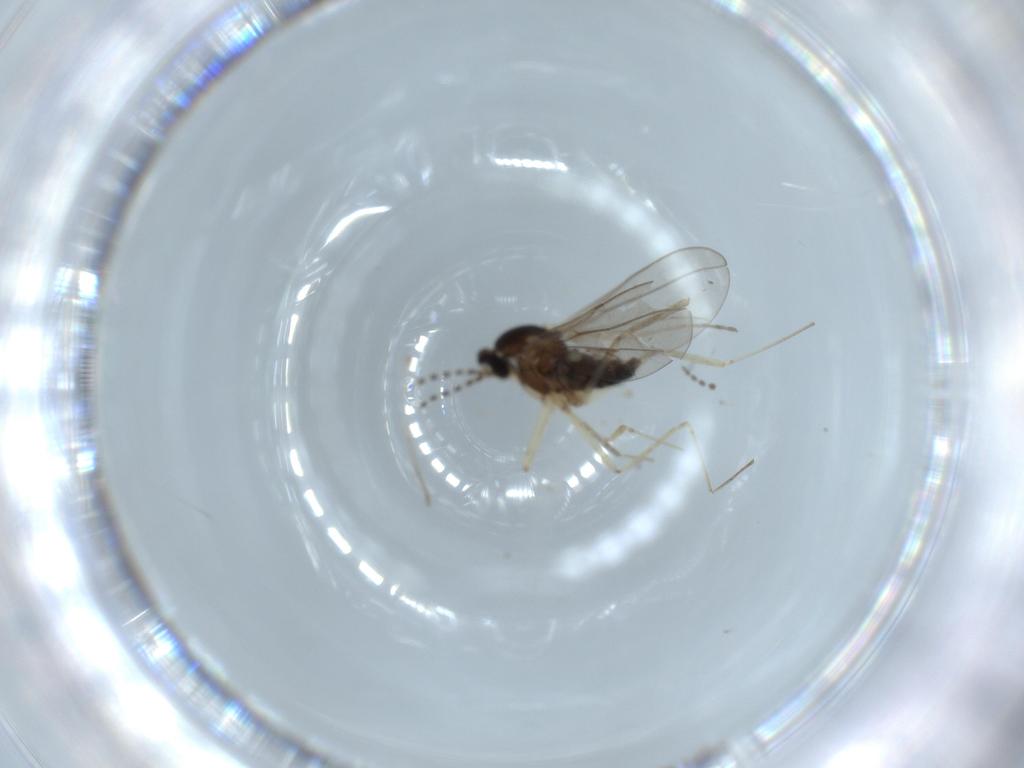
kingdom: Animalia
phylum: Arthropoda
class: Insecta
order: Diptera
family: Cecidomyiidae
